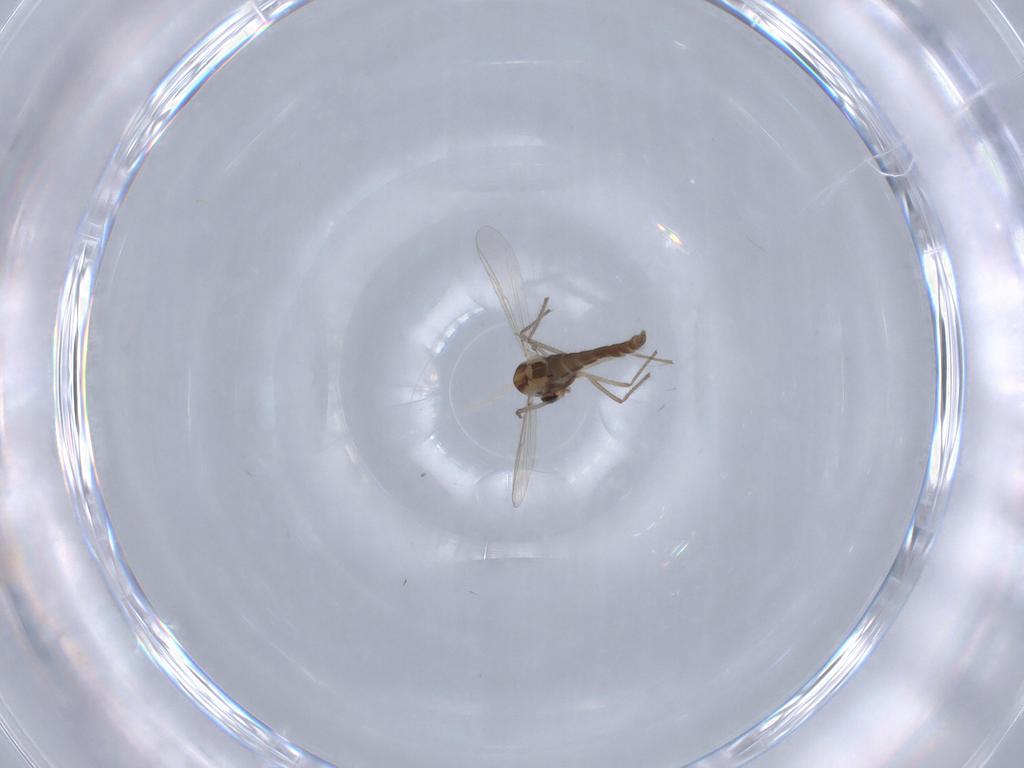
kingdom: Animalia
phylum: Arthropoda
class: Insecta
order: Diptera
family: Chironomidae
